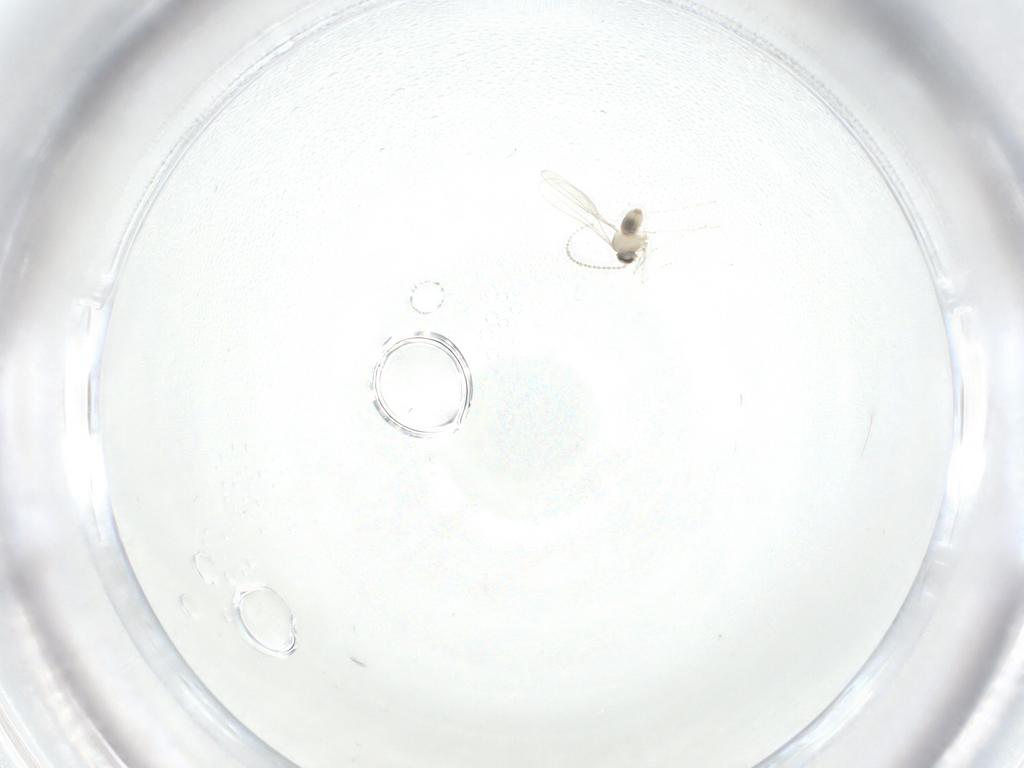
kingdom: Animalia
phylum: Arthropoda
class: Insecta
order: Diptera
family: Cecidomyiidae
